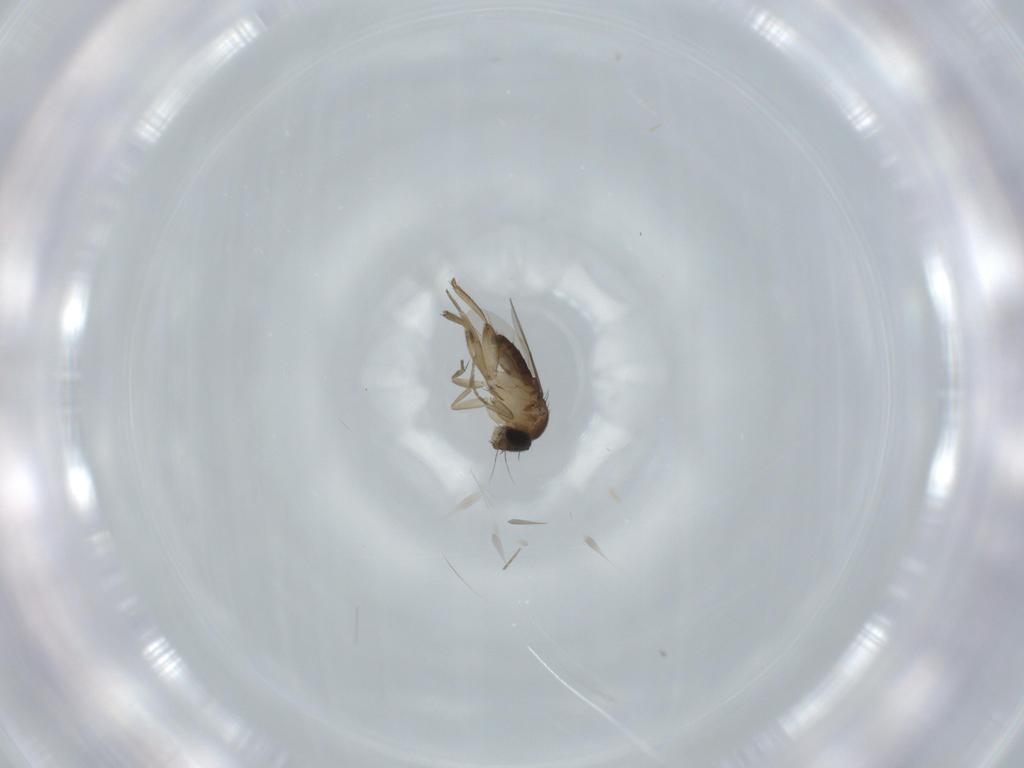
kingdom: Animalia
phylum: Arthropoda
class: Insecta
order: Diptera
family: Phoridae
